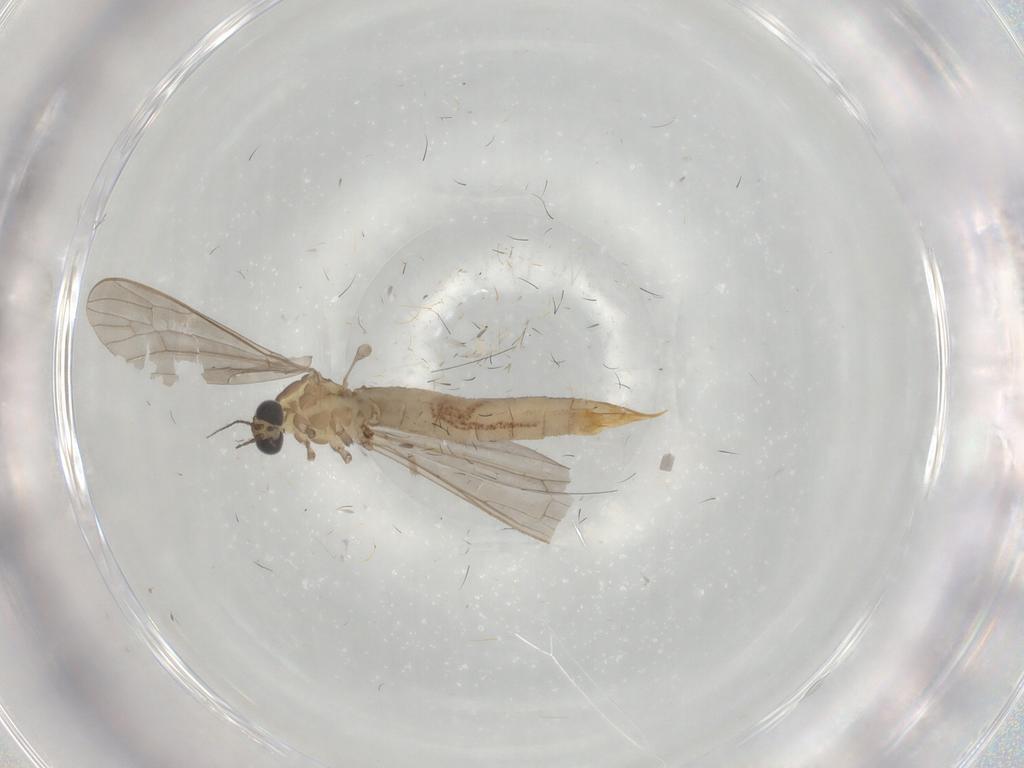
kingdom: Animalia
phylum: Arthropoda
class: Insecta
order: Diptera
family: Limoniidae
